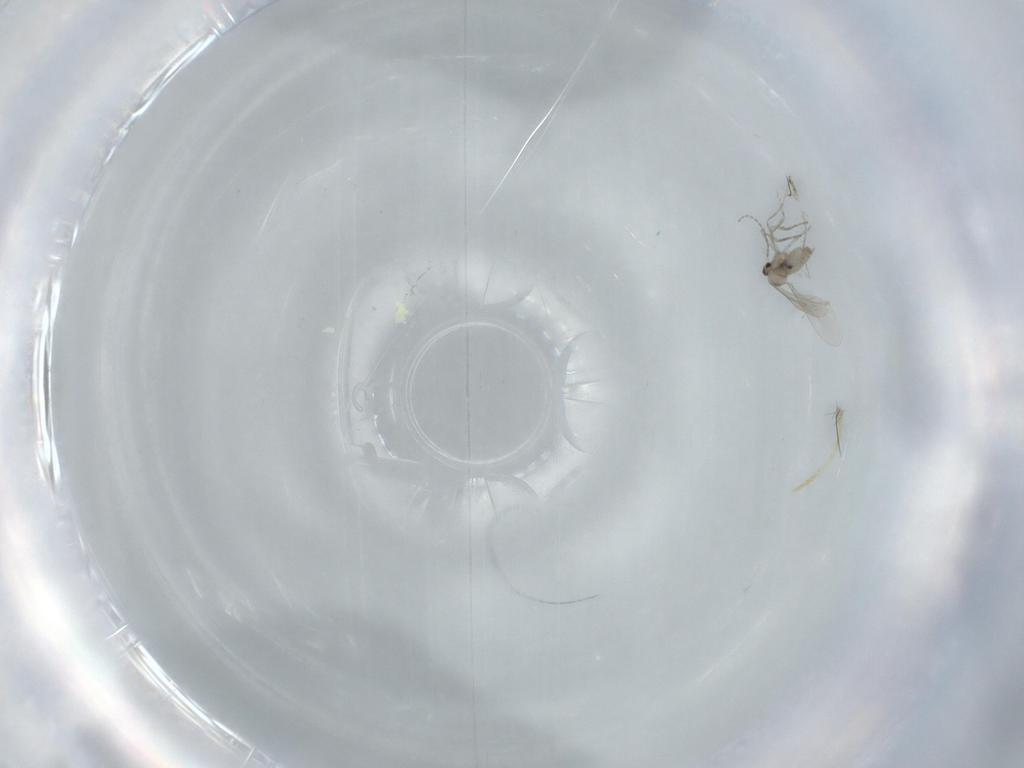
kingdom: Animalia
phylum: Arthropoda
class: Insecta
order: Diptera
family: Cecidomyiidae
